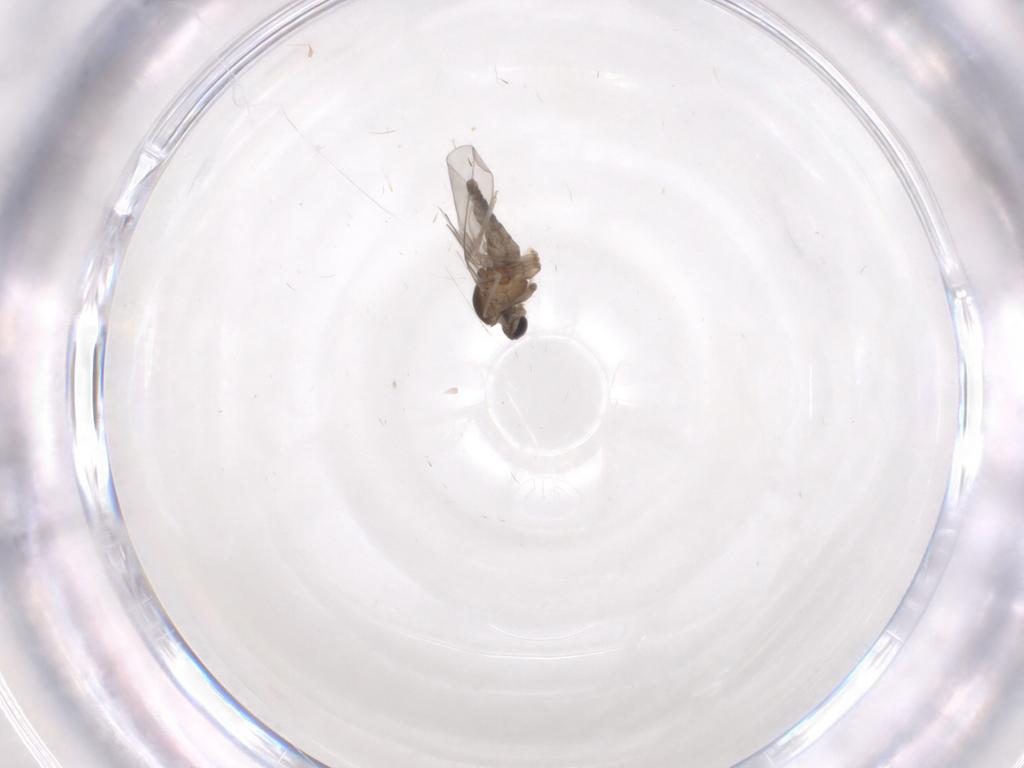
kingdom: Animalia
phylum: Arthropoda
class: Insecta
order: Diptera
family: Cecidomyiidae
